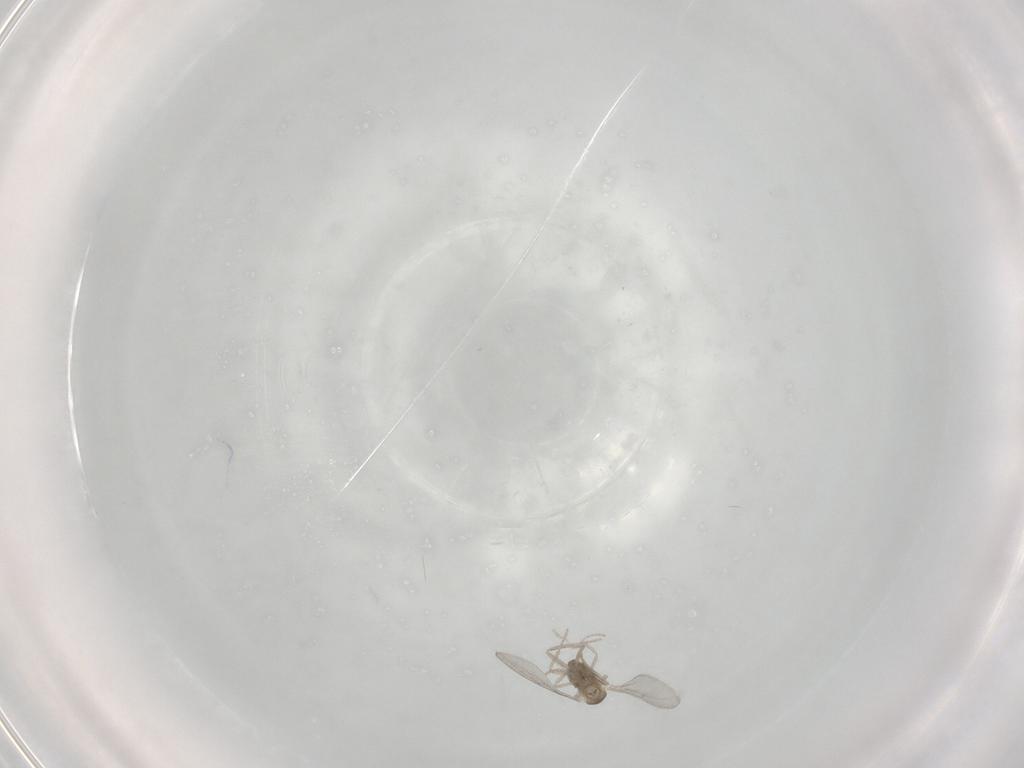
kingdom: Animalia
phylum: Arthropoda
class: Insecta
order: Diptera
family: Cecidomyiidae
